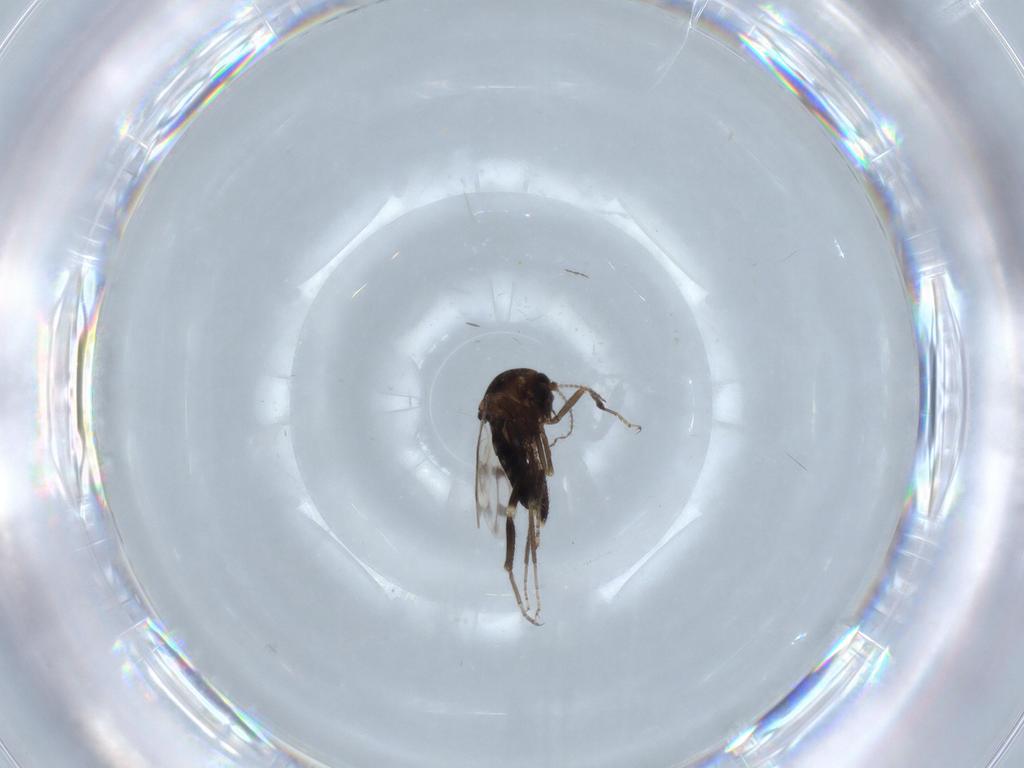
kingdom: Animalia
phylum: Arthropoda
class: Insecta
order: Diptera
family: Ceratopogonidae
